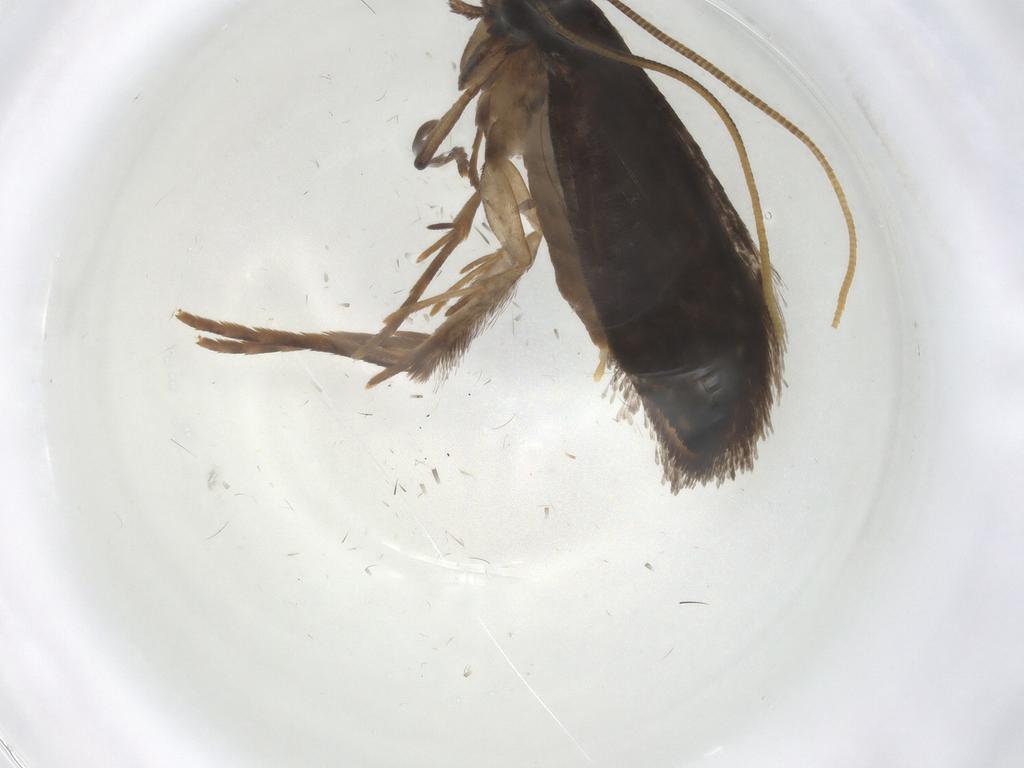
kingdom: Animalia
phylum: Arthropoda
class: Insecta
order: Lepidoptera
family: Tineidae
